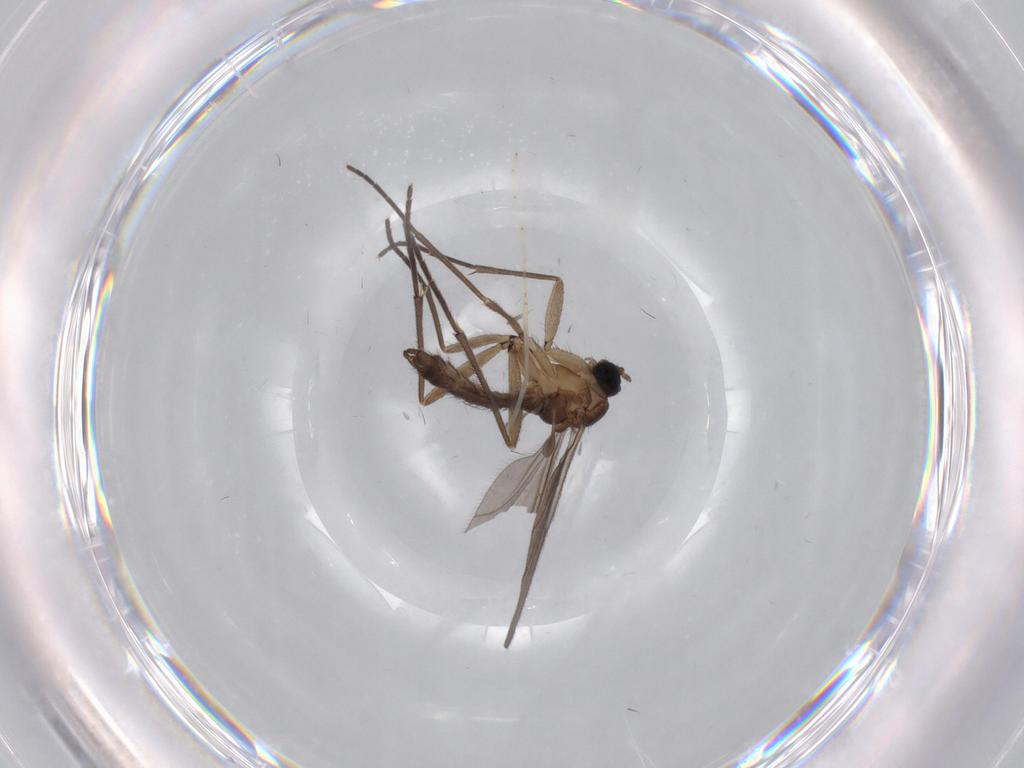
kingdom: Animalia
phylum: Arthropoda
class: Insecta
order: Diptera
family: Sciaridae
